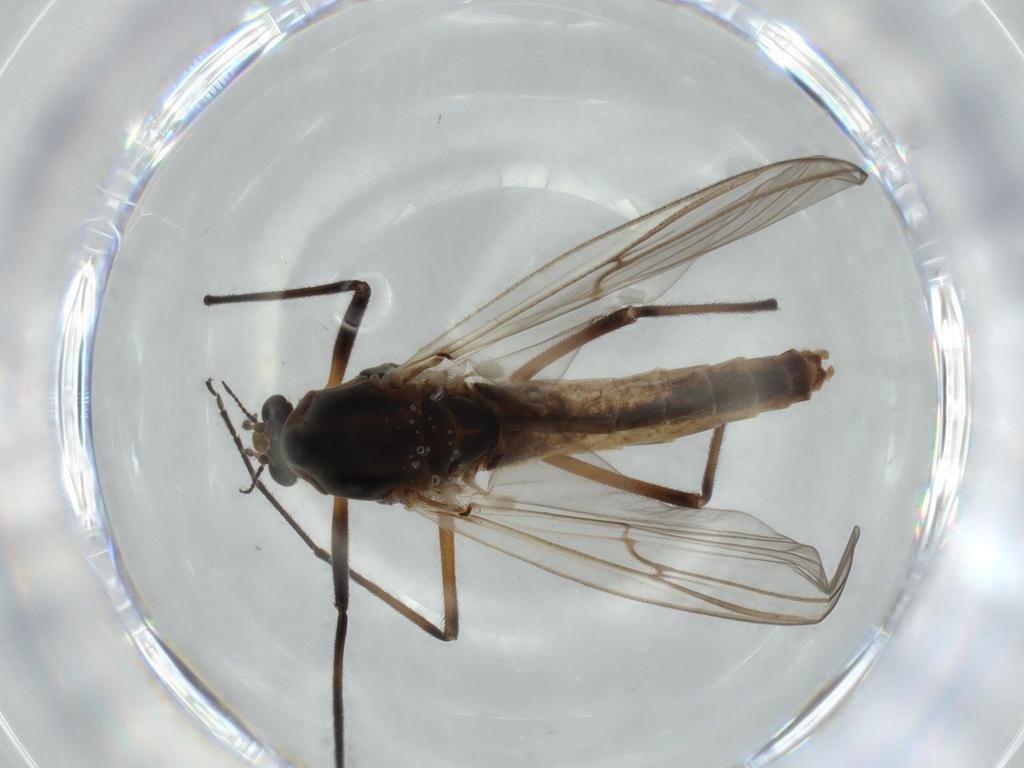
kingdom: Animalia
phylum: Arthropoda
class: Insecta
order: Diptera
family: Chironomidae
